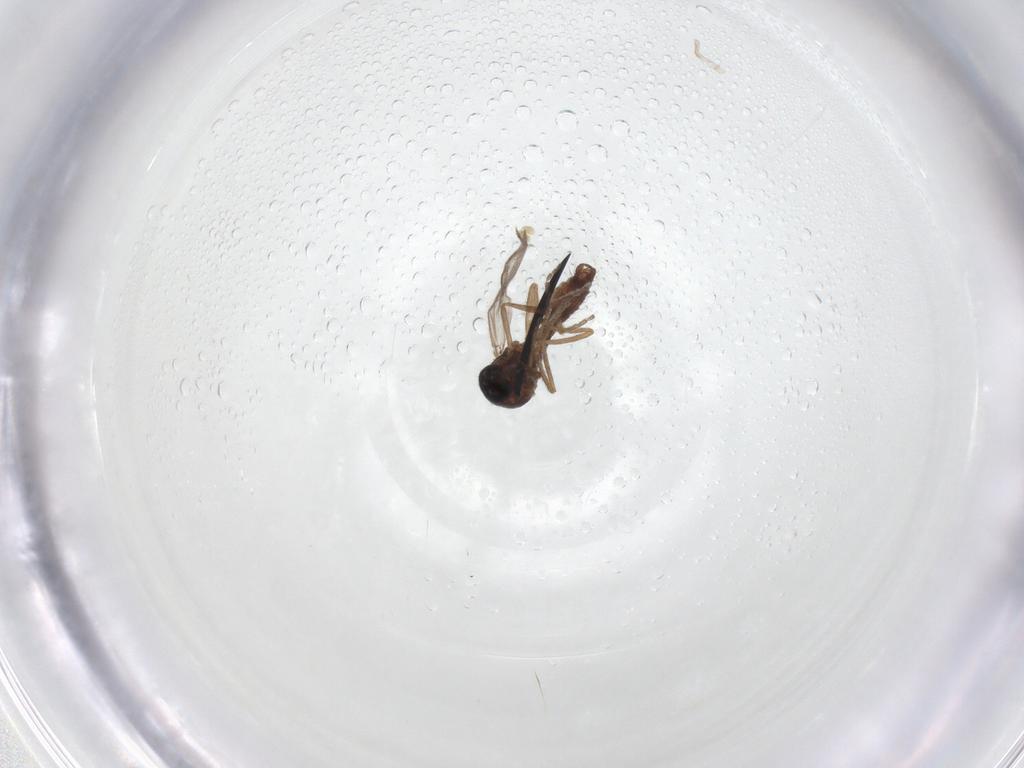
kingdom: Animalia
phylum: Arthropoda
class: Insecta
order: Diptera
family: Ceratopogonidae
